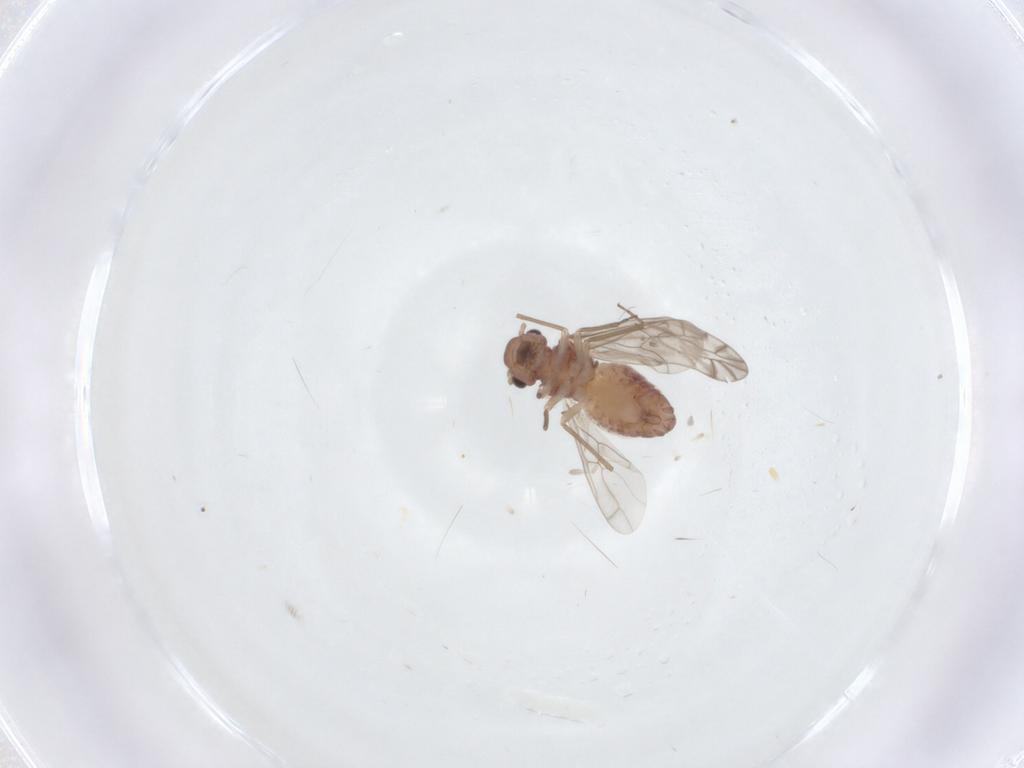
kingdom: Animalia
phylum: Arthropoda
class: Insecta
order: Psocodea
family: Peripsocidae
